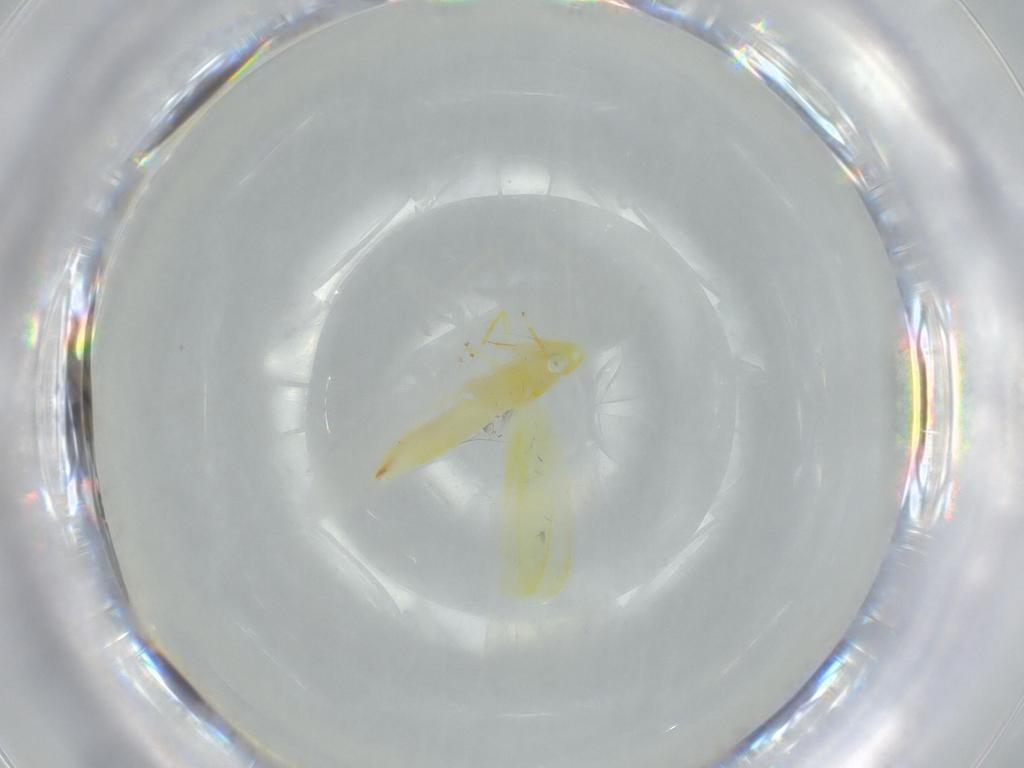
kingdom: Animalia
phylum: Arthropoda
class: Insecta
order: Hemiptera
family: Cicadellidae
